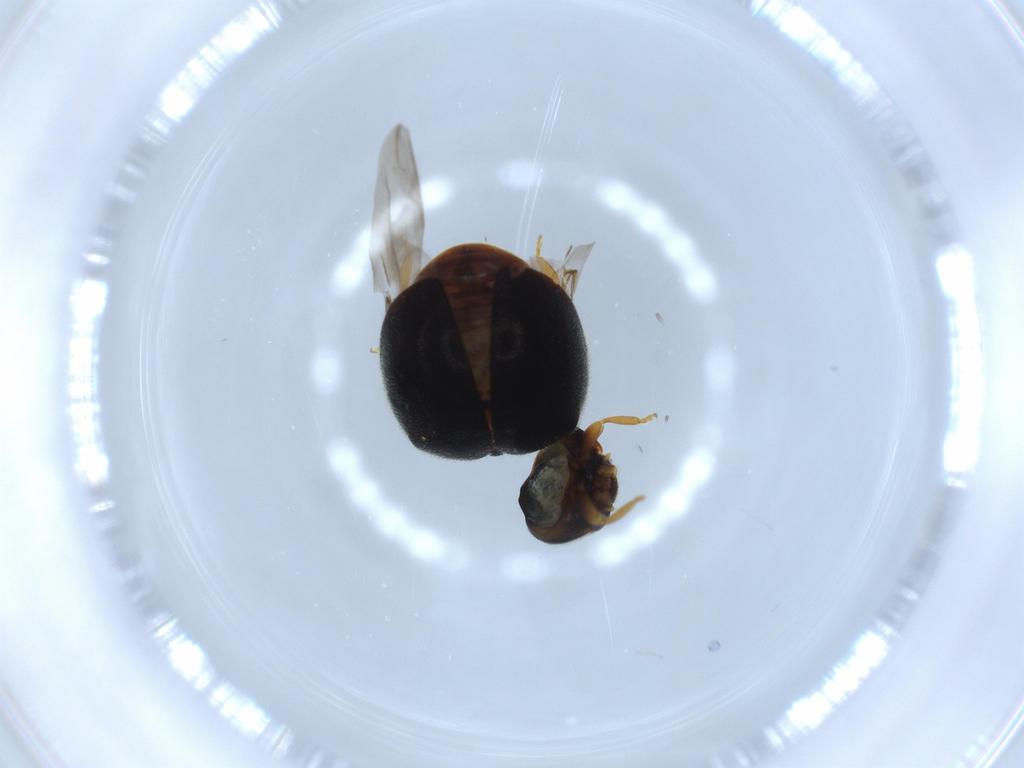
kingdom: Animalia
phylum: Arthropoda
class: Insecta
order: Coleoptera
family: Coccinellidae
